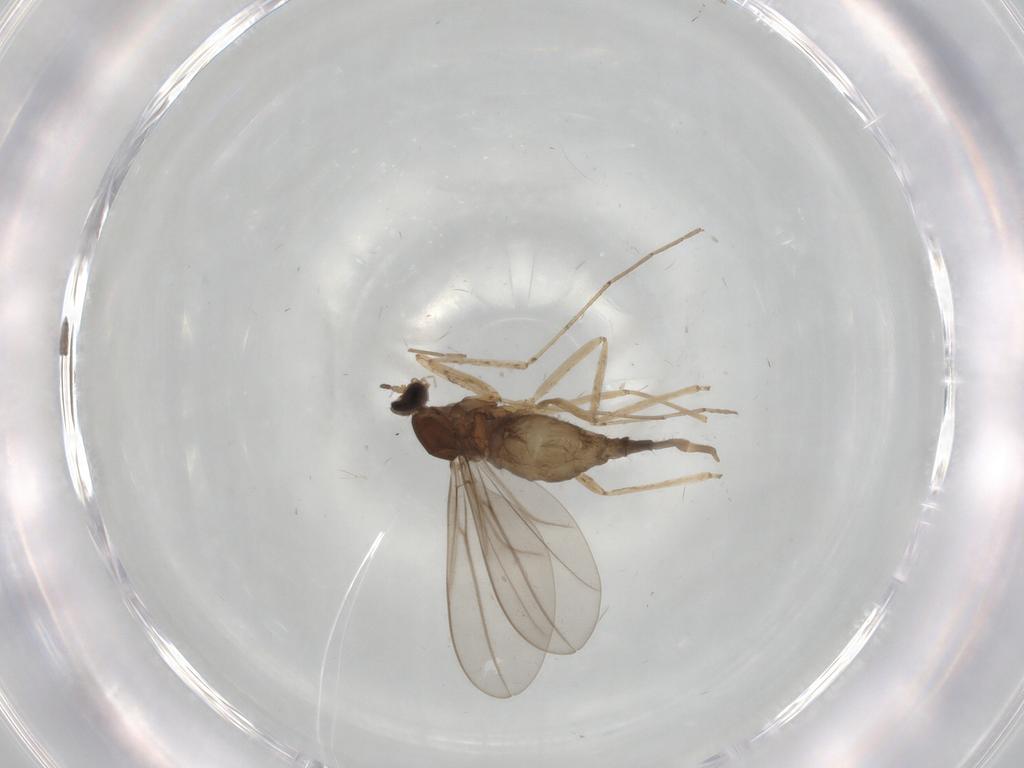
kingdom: Animalia
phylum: Arthropoda
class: Insecta
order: Diptera
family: Cecidomyiidae
